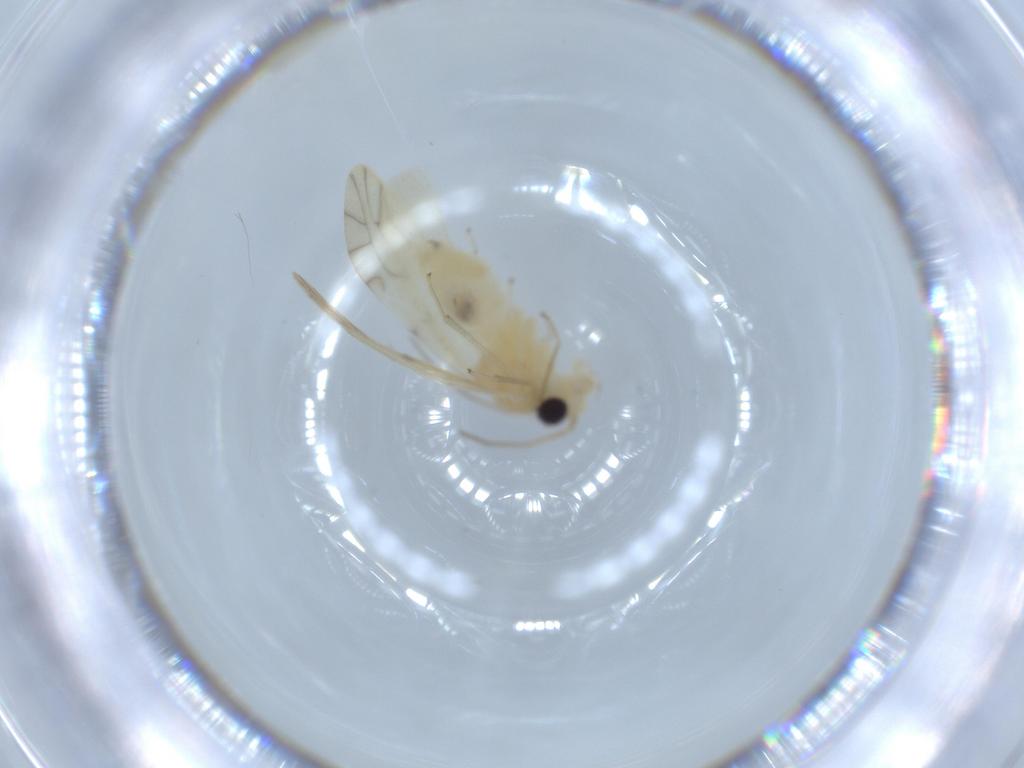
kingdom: Animalia
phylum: Arthropoda
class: Insecta
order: Psocodea
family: Caeciliusidae
